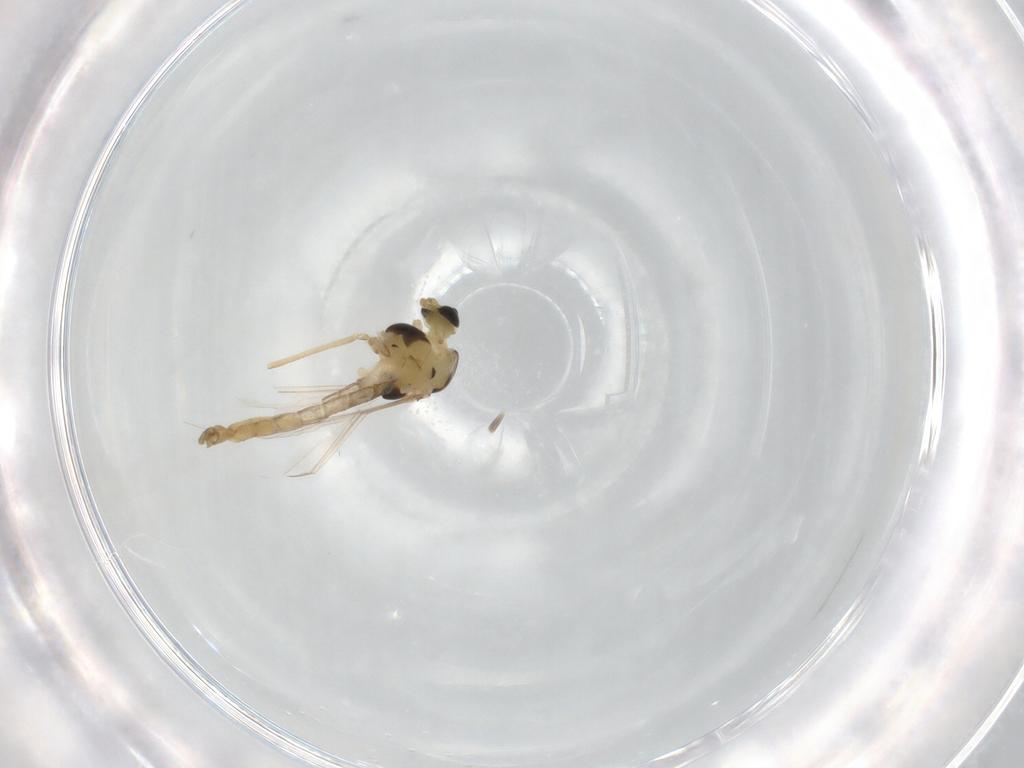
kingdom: Animalia
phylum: Arthropoda
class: Insecta
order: Diptera
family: Chironomidae
